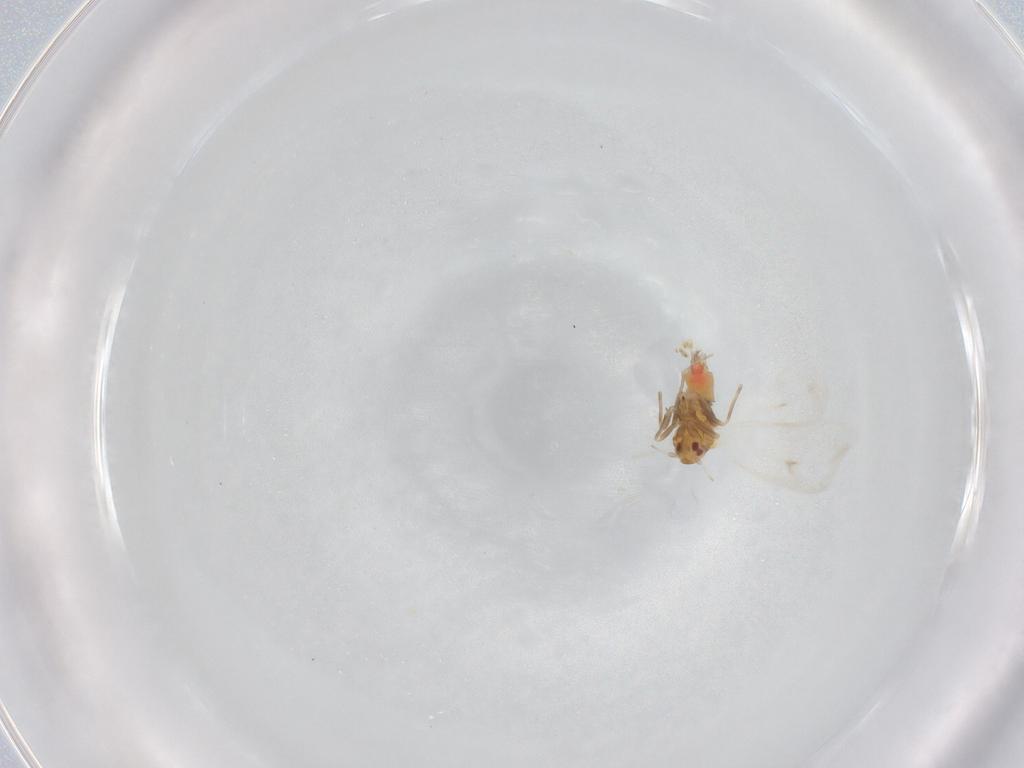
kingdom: Animalia
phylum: Arthropoda
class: Insecta
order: Hemiptera
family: Aleyrodidae
